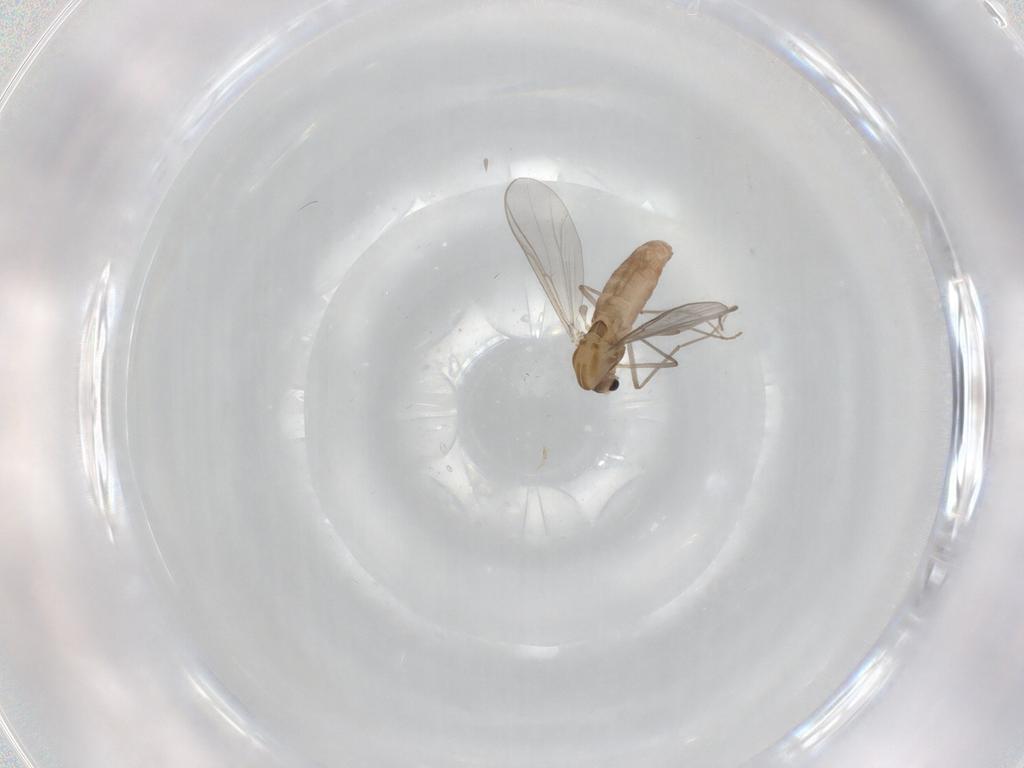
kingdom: Animalia
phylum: Arthropoda
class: Insecta
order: Diptera
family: Chironomidae
